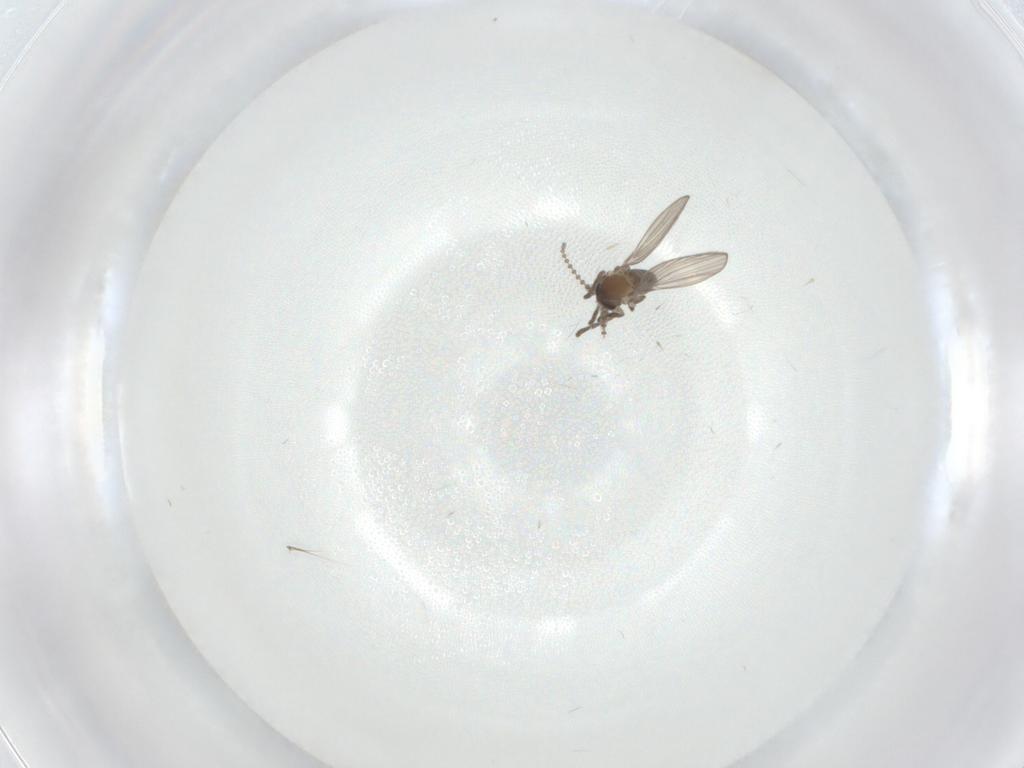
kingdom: Animalia
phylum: Arthropoda
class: Insecta
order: Diptera
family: Psychodidae
